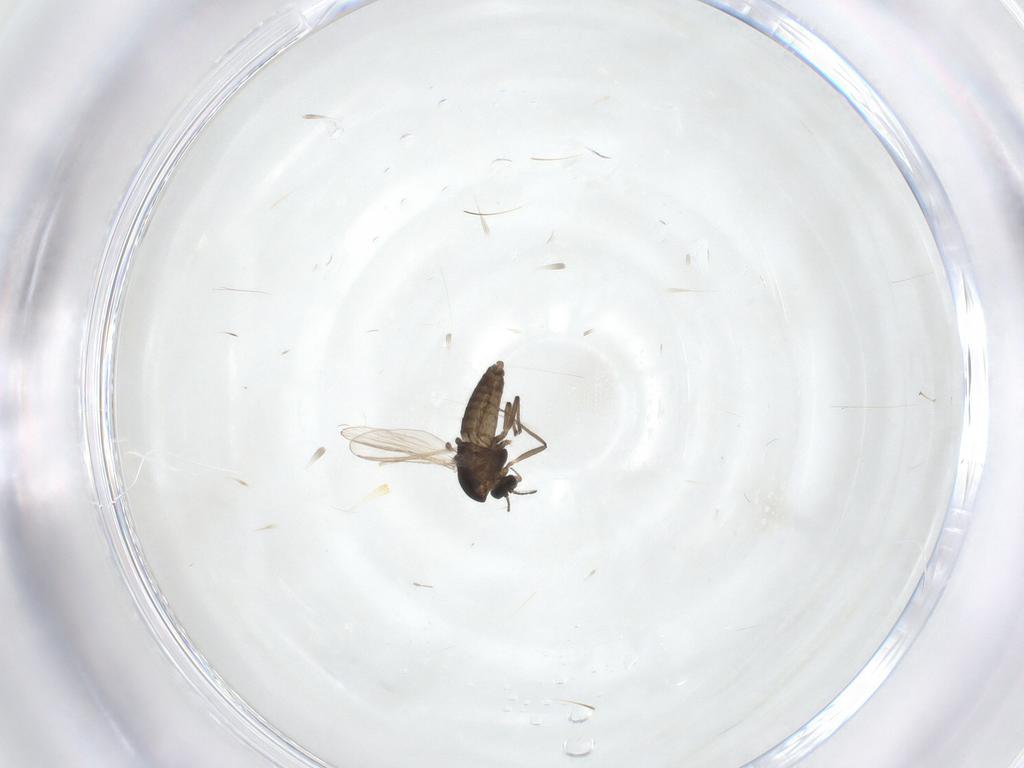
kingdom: Animalia
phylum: Arthropoda
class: Insecta
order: Diptera
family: Chironomidae
